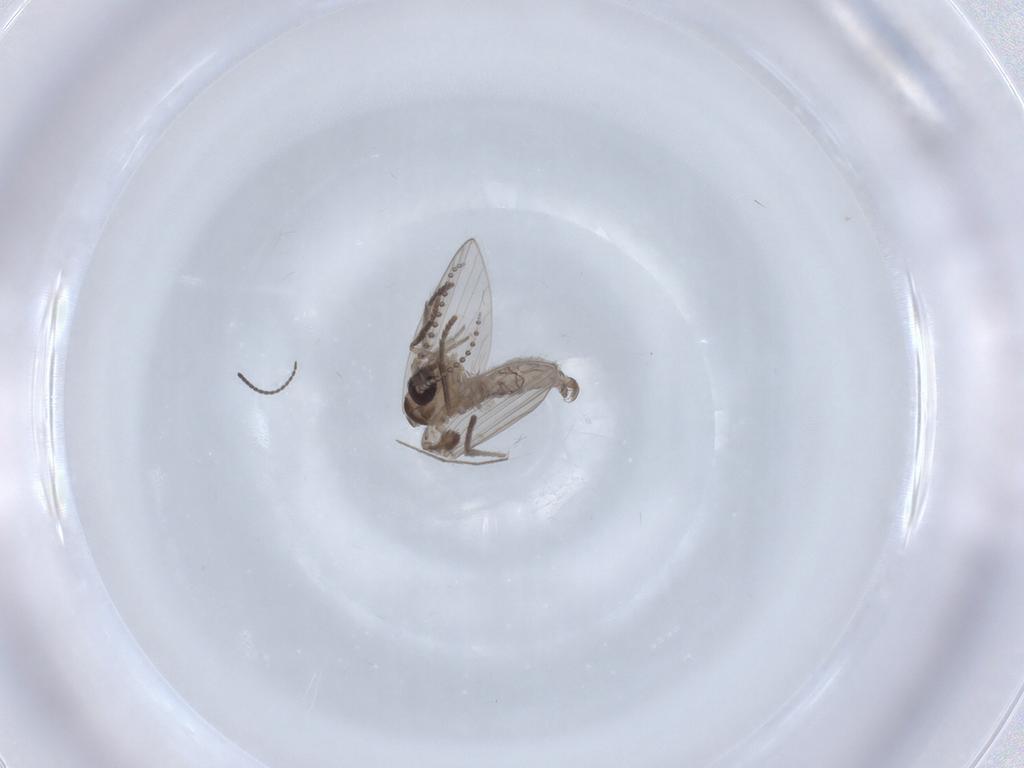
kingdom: Animalia
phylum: Arthropoda
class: Insecta
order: Diptera
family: Psychodidae
